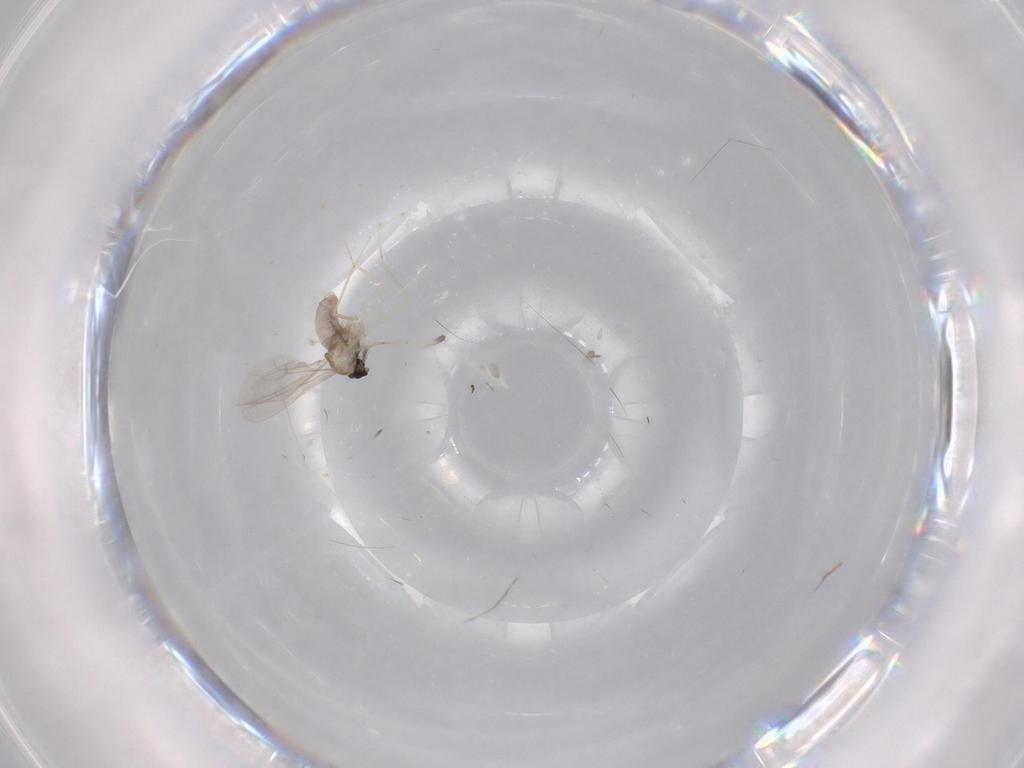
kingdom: Animalia
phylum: Arthropoda
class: Insecta
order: Diptera
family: Cecidomyiidae
